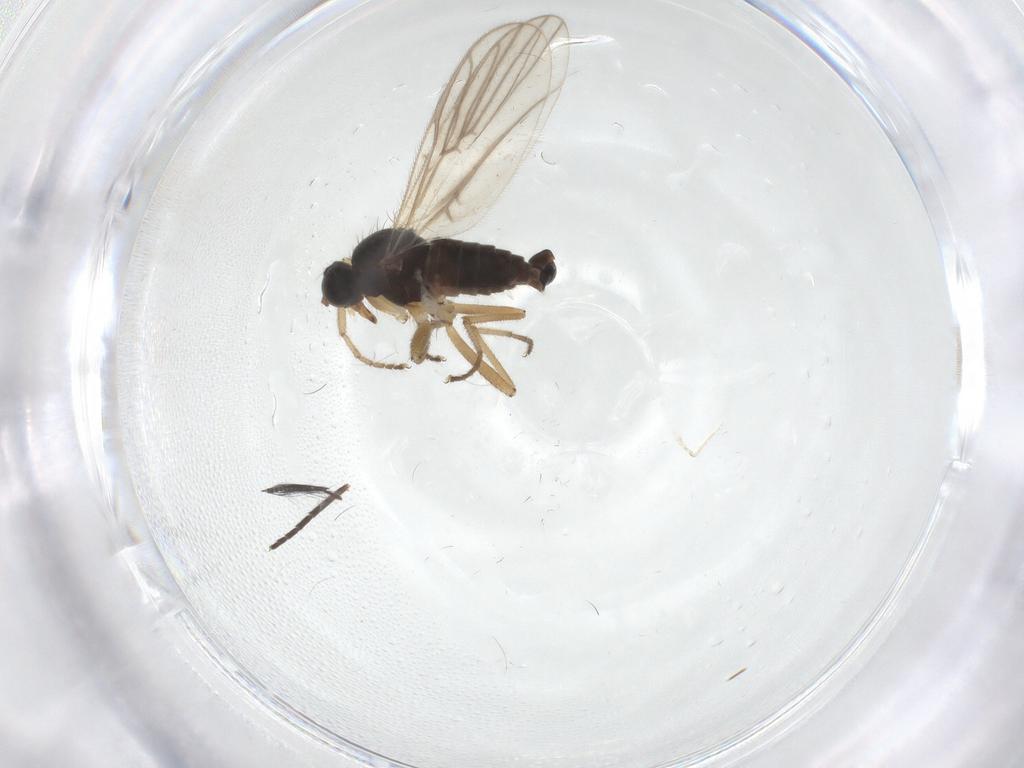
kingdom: Animalia
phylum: Arthropoda
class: Insecta
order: Diptera
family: Hybotidae
